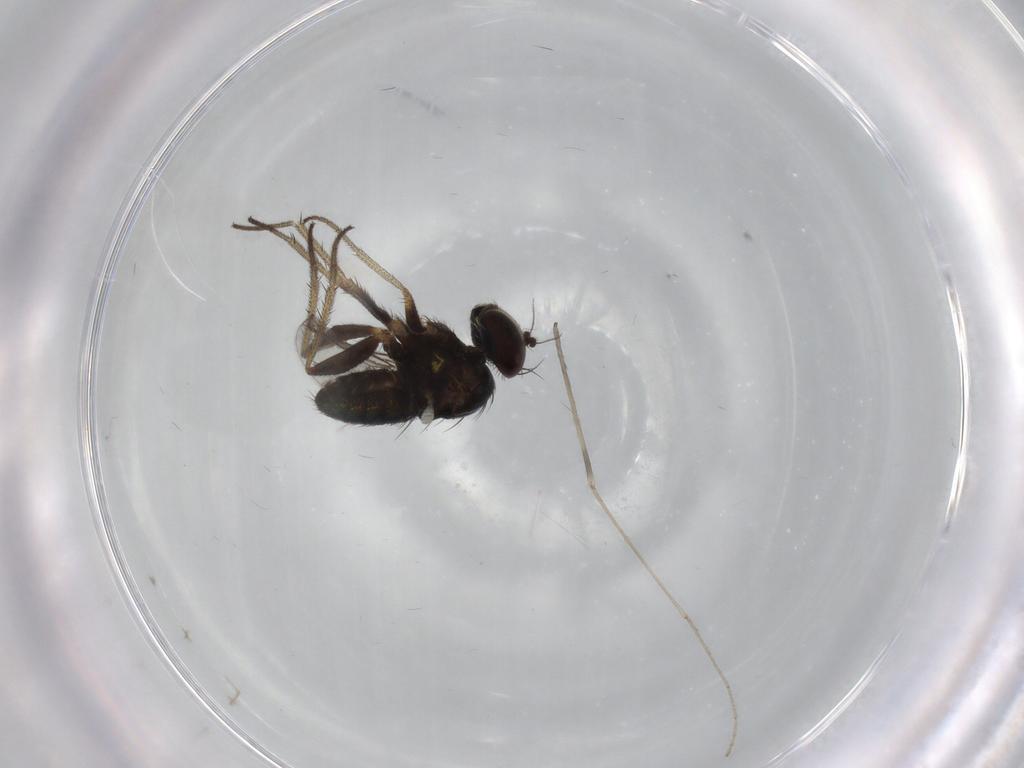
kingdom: Animalia
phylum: Arthropoda
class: Insecta
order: Diptera
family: Limoniidae
